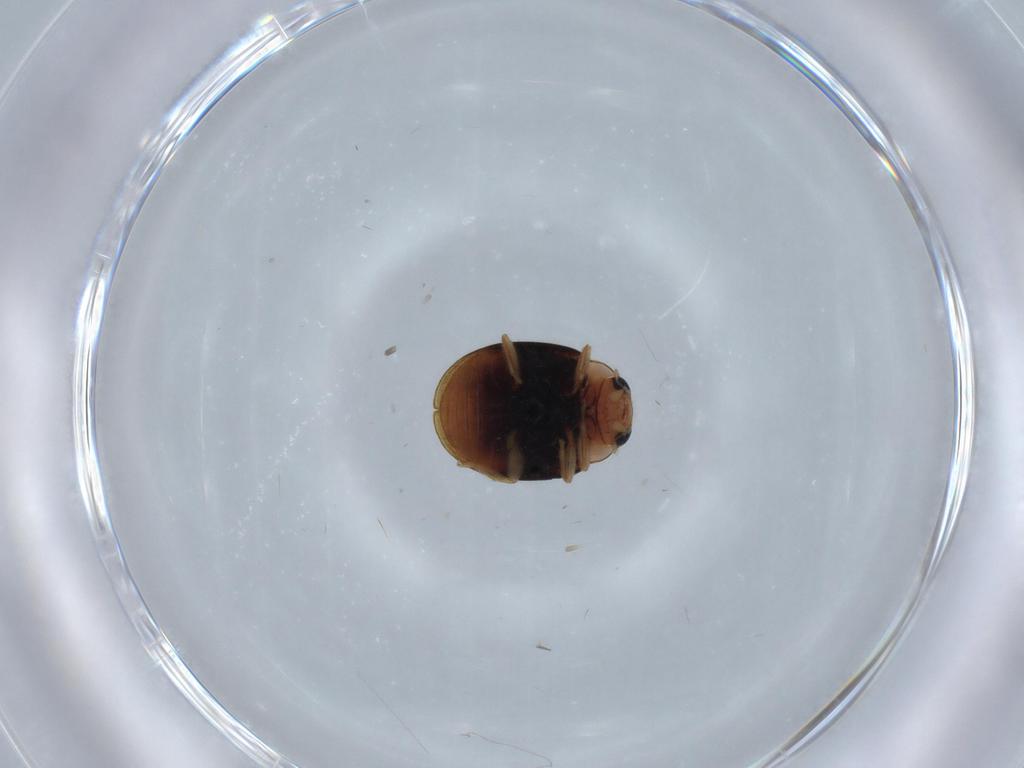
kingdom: Animalia
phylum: Arthropoda
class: Insecta
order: Coleoptera
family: Coccinellidae
